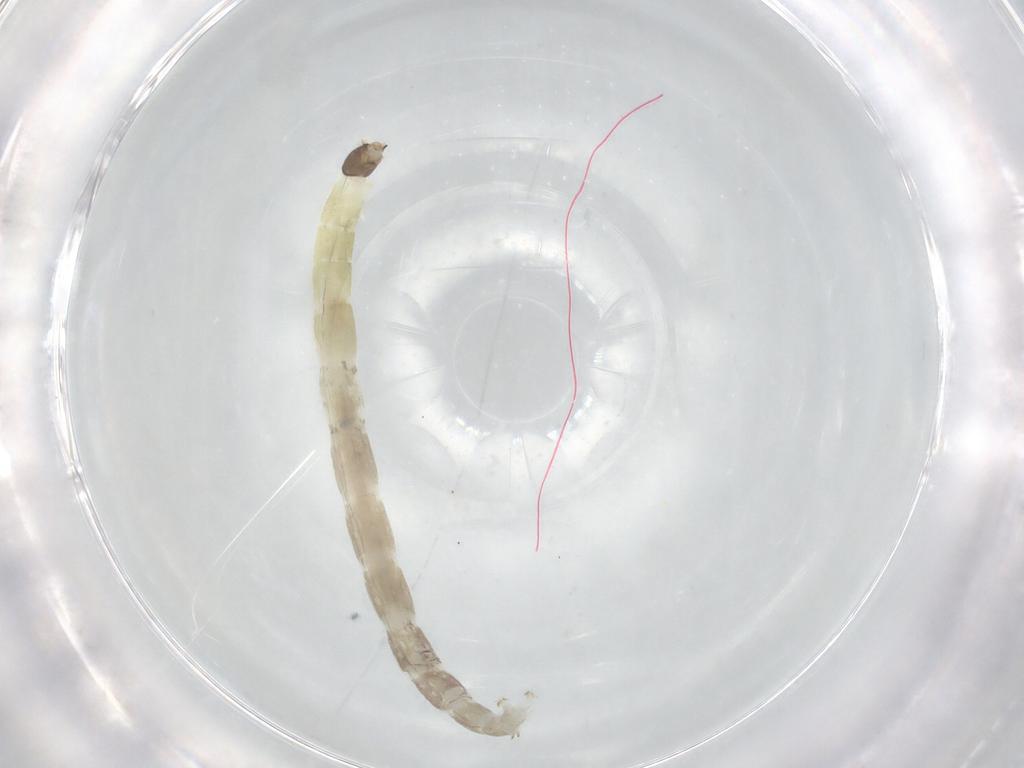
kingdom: Animalia
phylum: Arthropoda
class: Insecta
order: Diptera
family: Chironomidae
